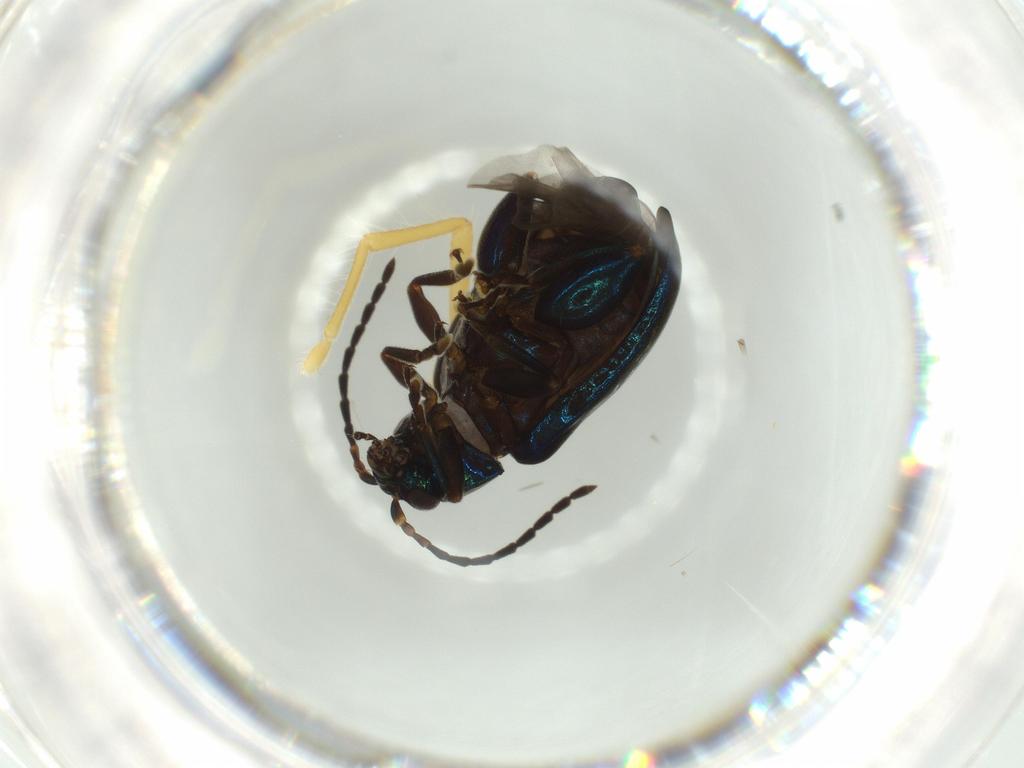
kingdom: Animalia
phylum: Arthropoda
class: Insecta
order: Coleoptera
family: Chrysomelidae
